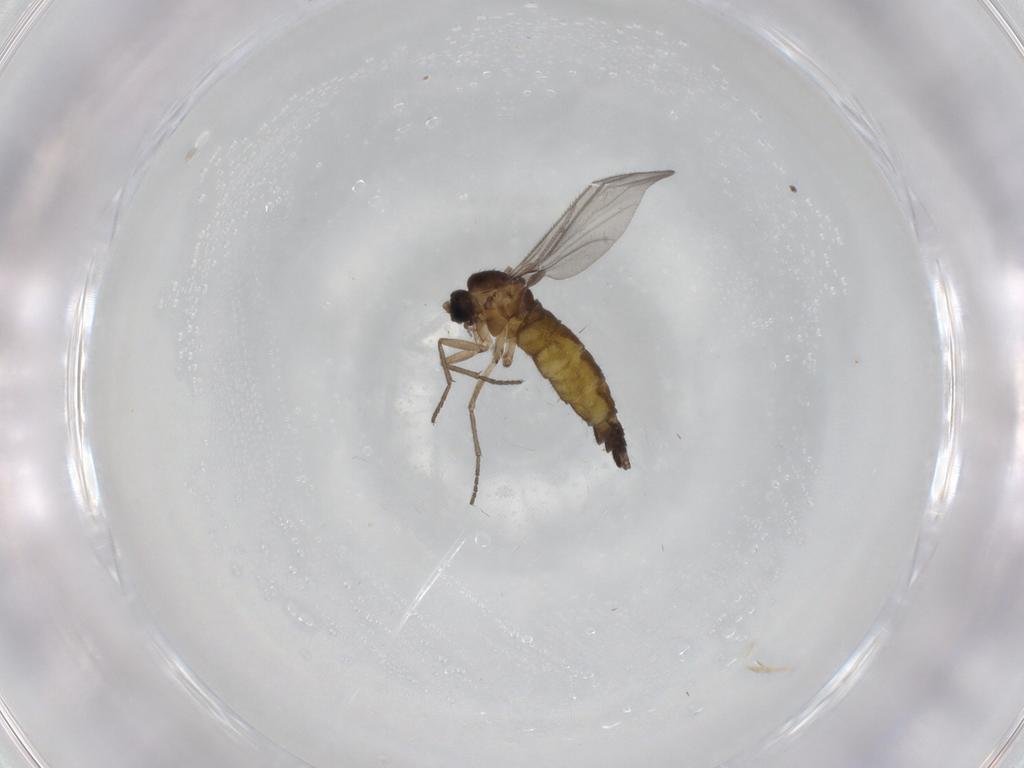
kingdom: Animalia
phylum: Arthropoda
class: Insecta
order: Diptera
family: Sciaridae
